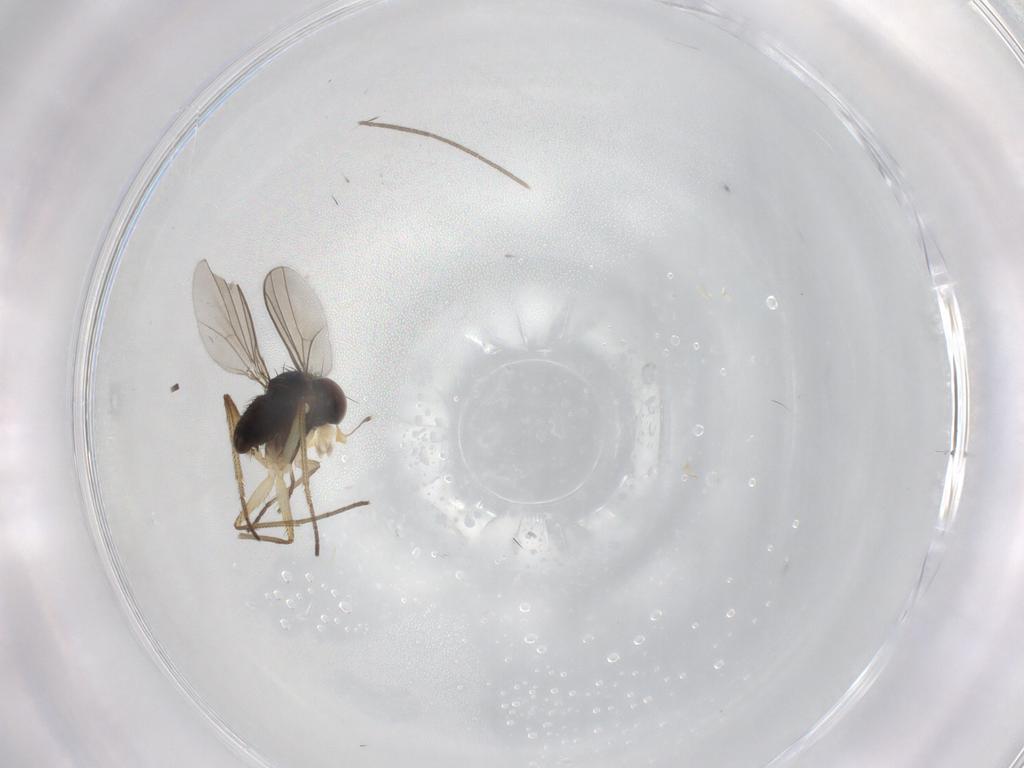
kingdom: Animalia
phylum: Arthropoda
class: Insecta
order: Diptera
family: Dolichopodidae
